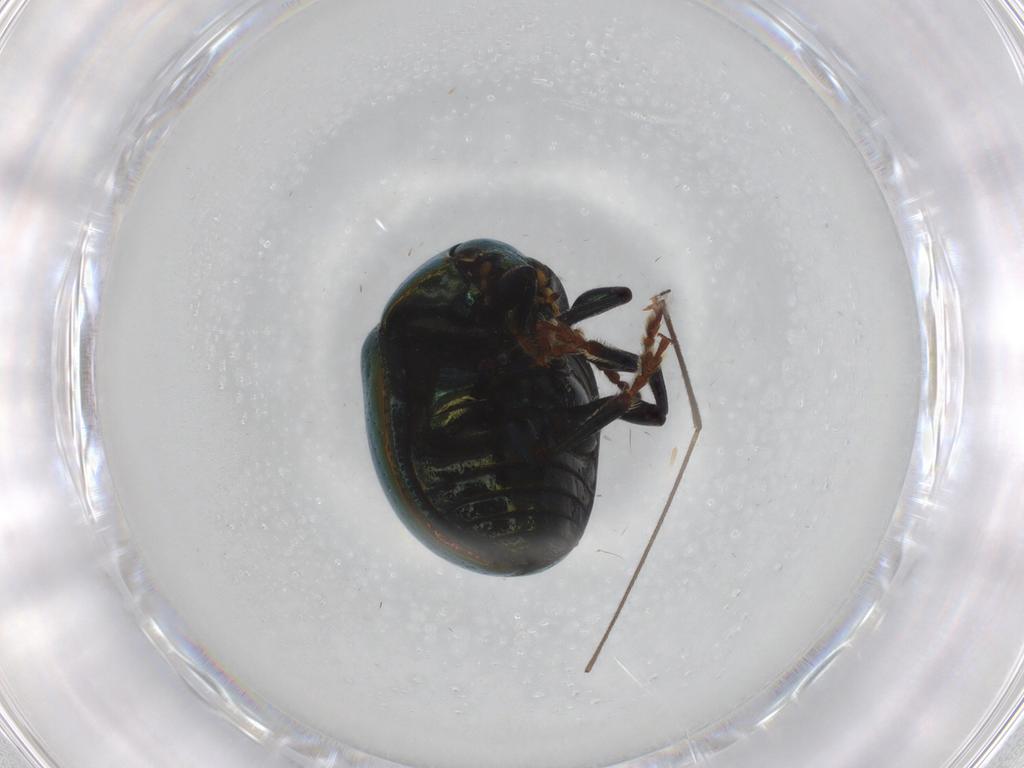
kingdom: Animalia
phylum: Arthropoda
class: Insecta
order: Coleoptera
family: Chrysomelidae
